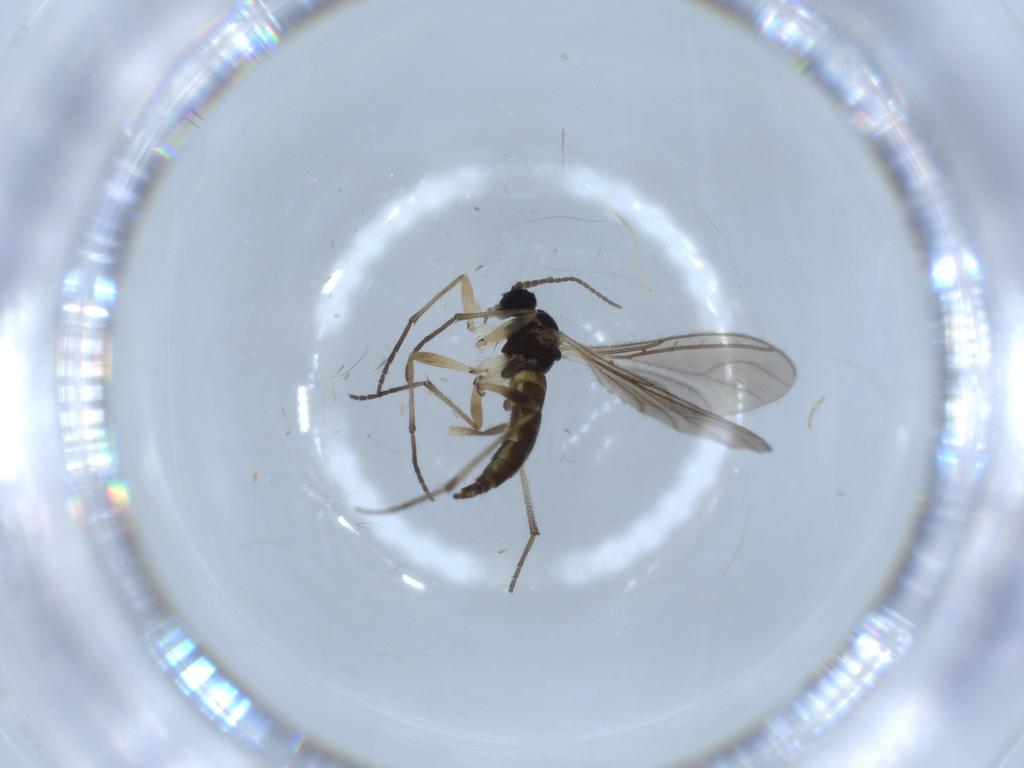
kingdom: Animalia
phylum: Arthropoda
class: Insecta
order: Diptera
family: Sciaridae
